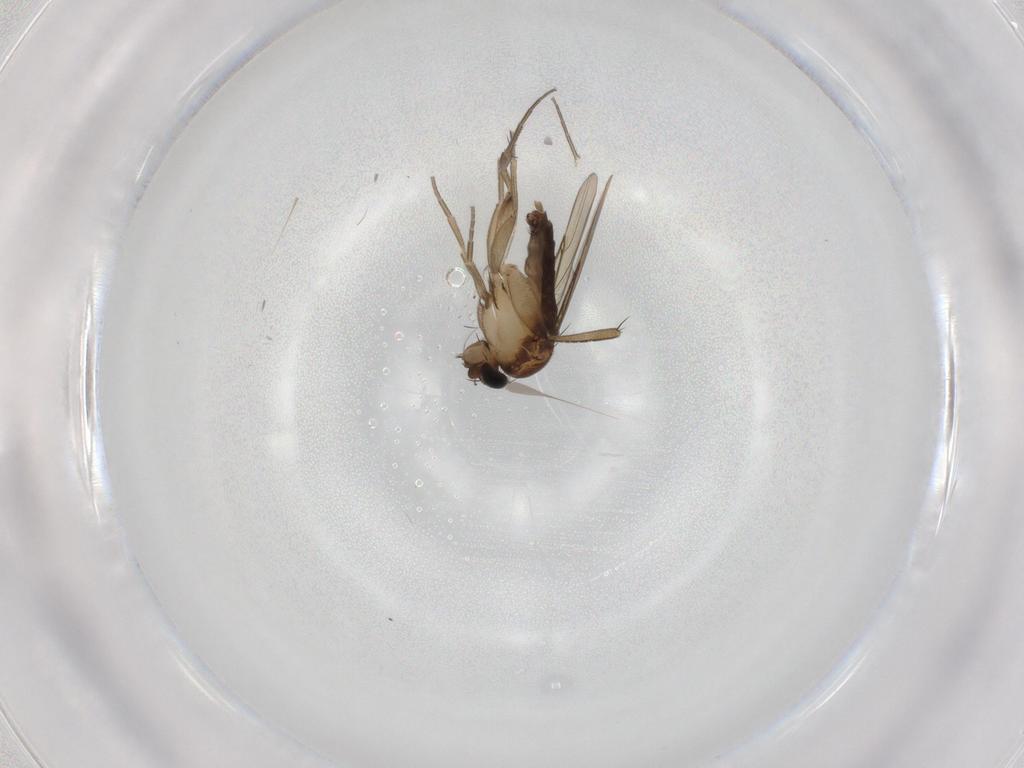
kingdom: Animalia
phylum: Arthropoda
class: Insecta
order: Diptera
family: Phoridae
